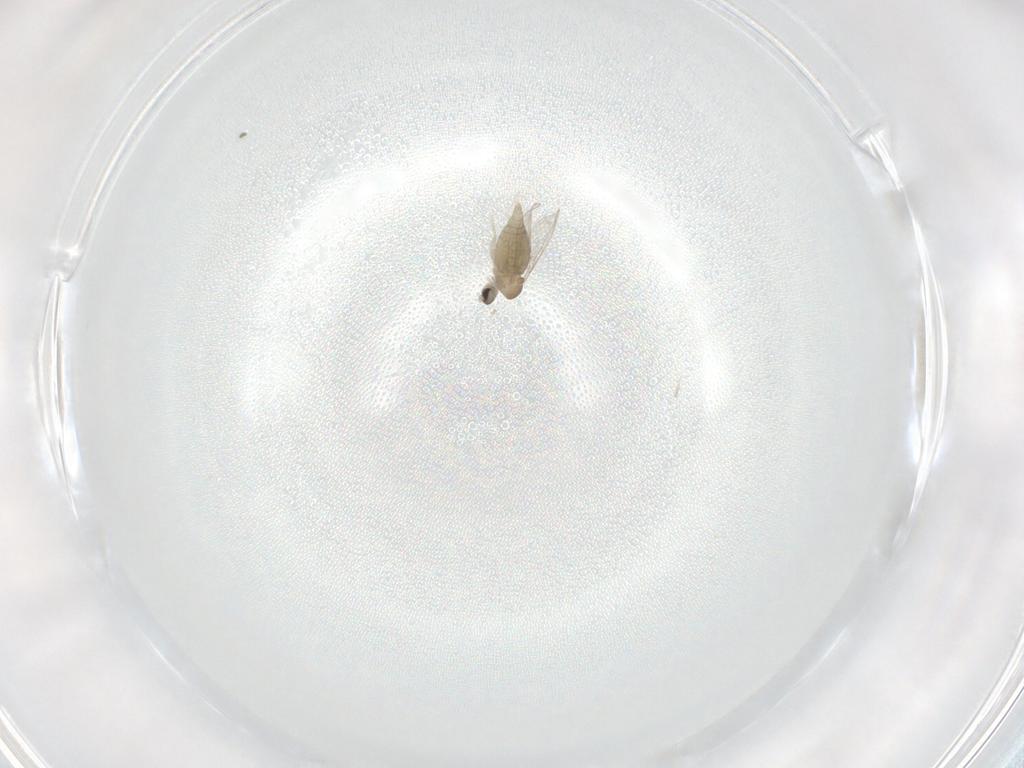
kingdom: Animalia
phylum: Arthropoda
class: Insecta
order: Diptera
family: Cecidomyiidae
